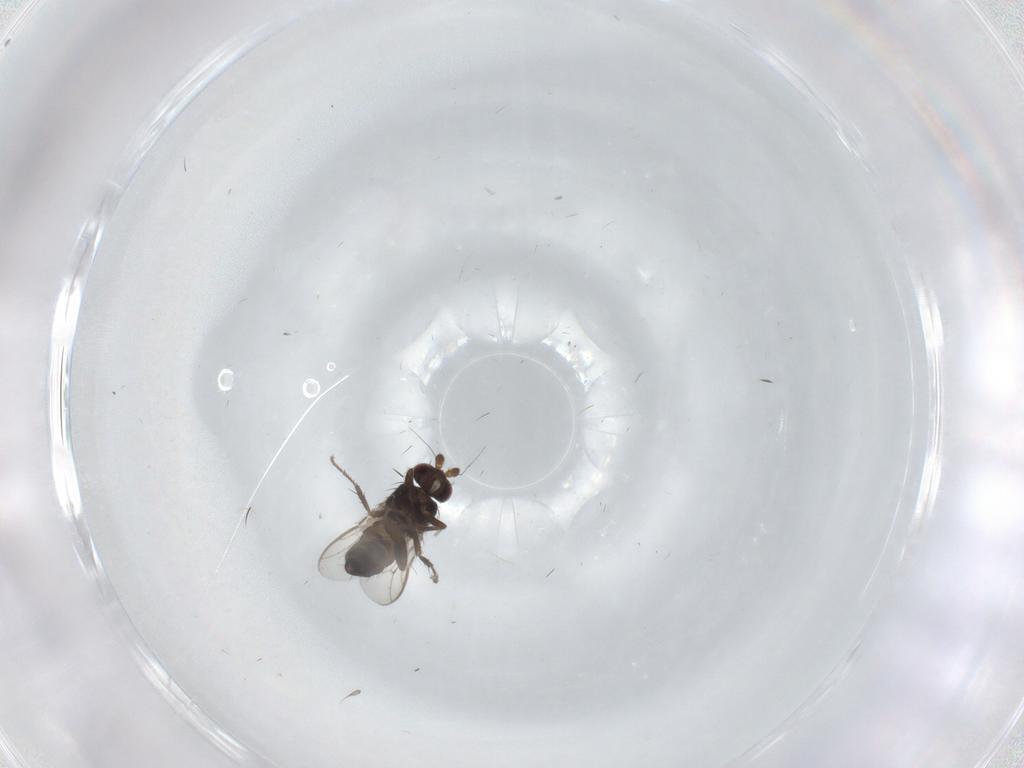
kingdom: Animalia
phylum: Arthropoda
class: Insecta
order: Diptera
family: Sphaeroceridae
